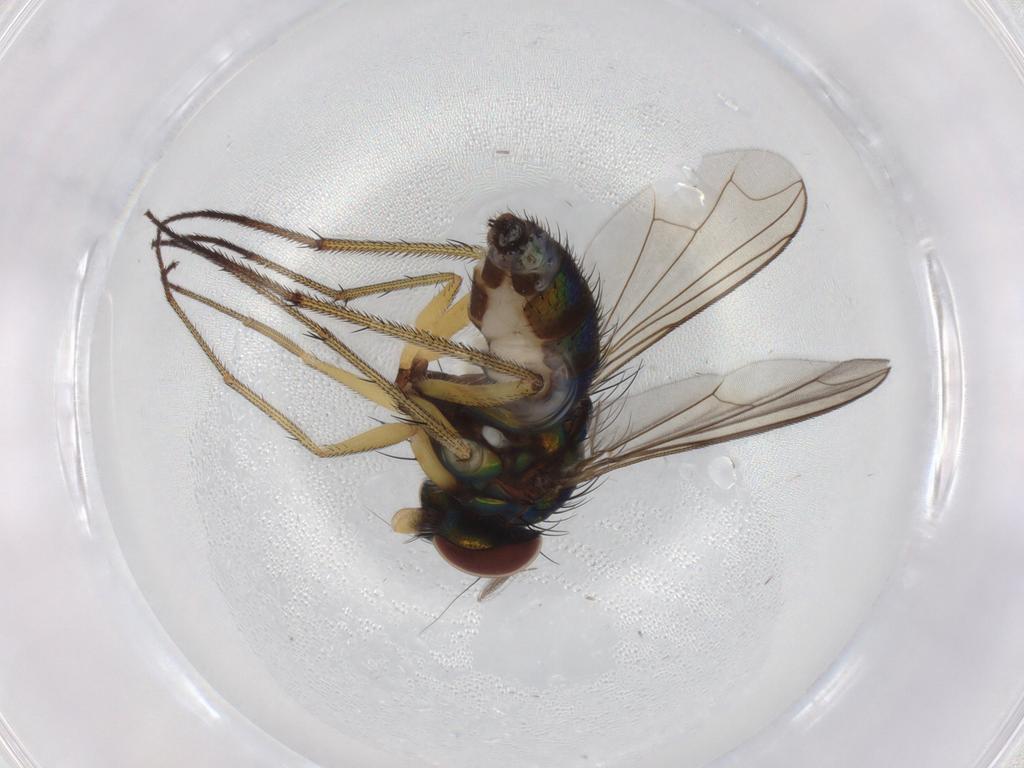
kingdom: Animalia
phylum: Arthropoda
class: Insecta
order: Diptera
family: Dolichopodidae
